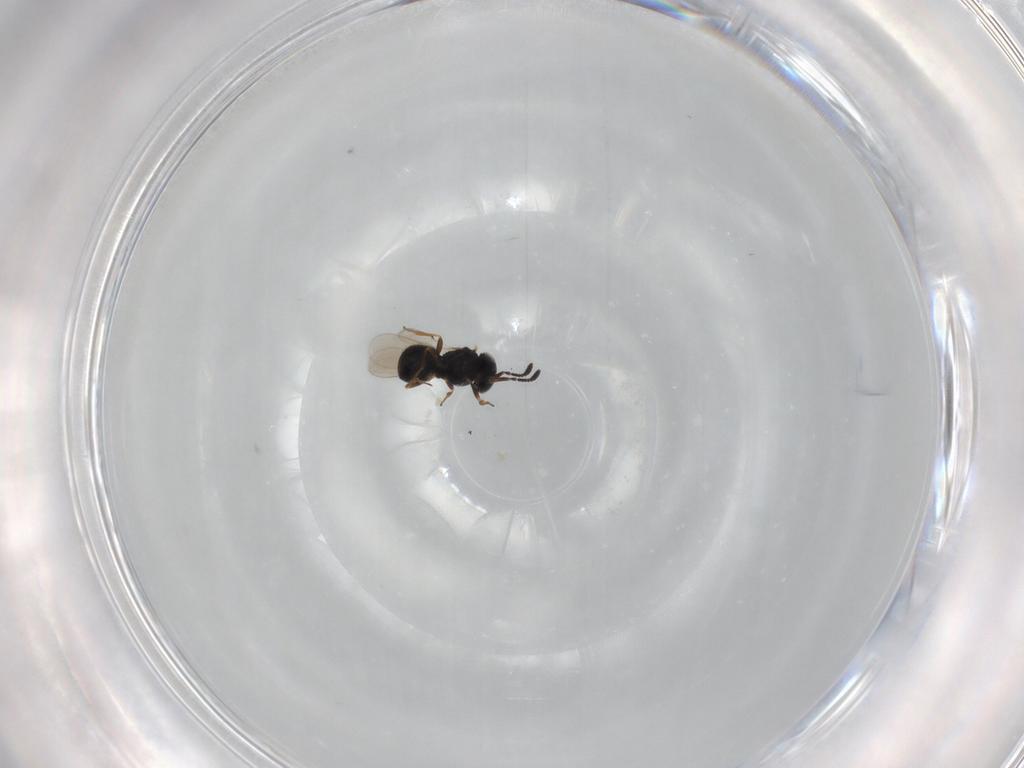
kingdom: Animalia
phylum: Arthropoda
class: Insecta
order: Hymenoptera
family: Scelionidae
